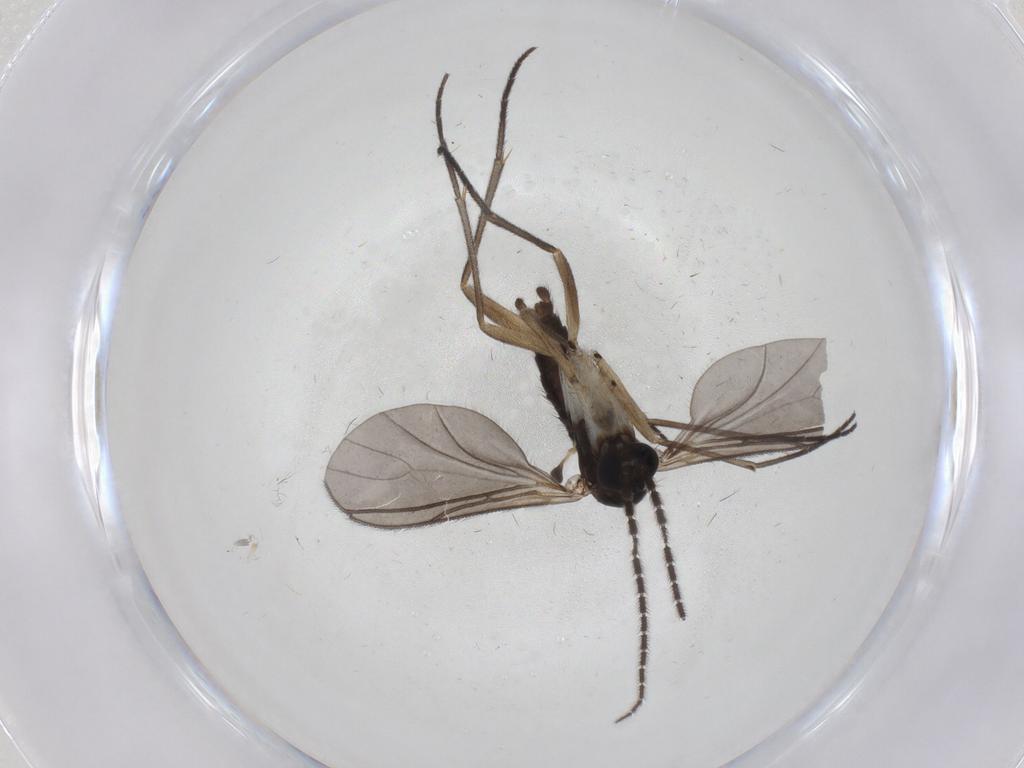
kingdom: Animalia
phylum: Arthropoda
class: Insecta
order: Diptera
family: Sciaridae
